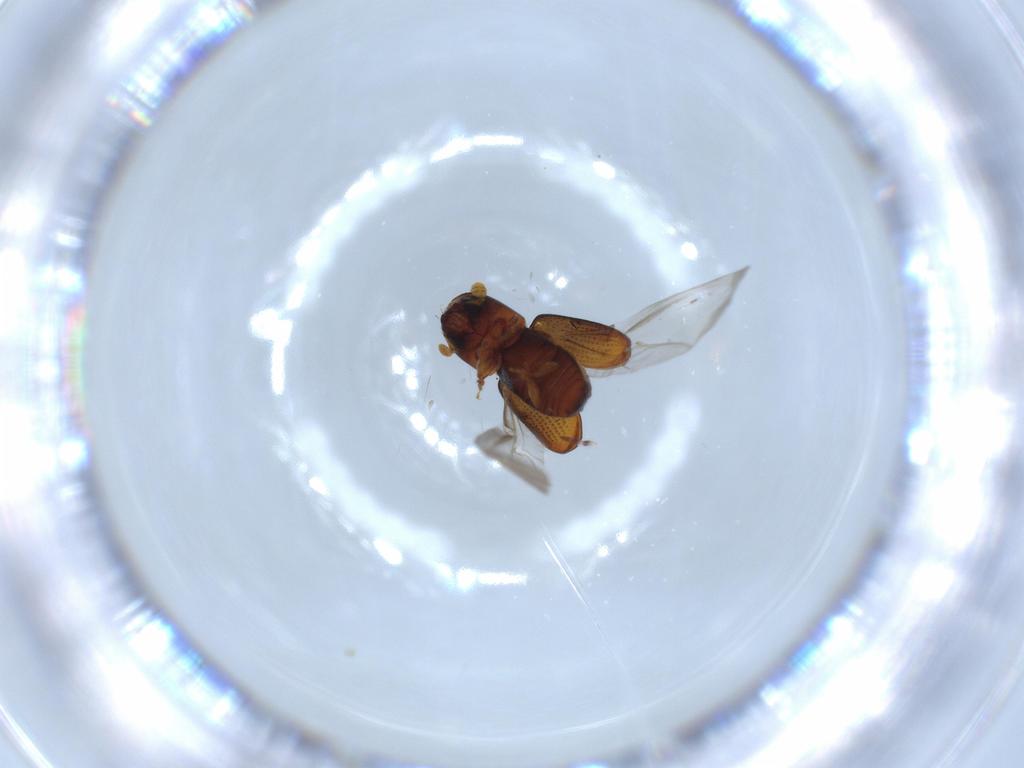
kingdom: Animalia
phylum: Arthropoda
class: Insecta
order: Coleoptera
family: Curculionidae
